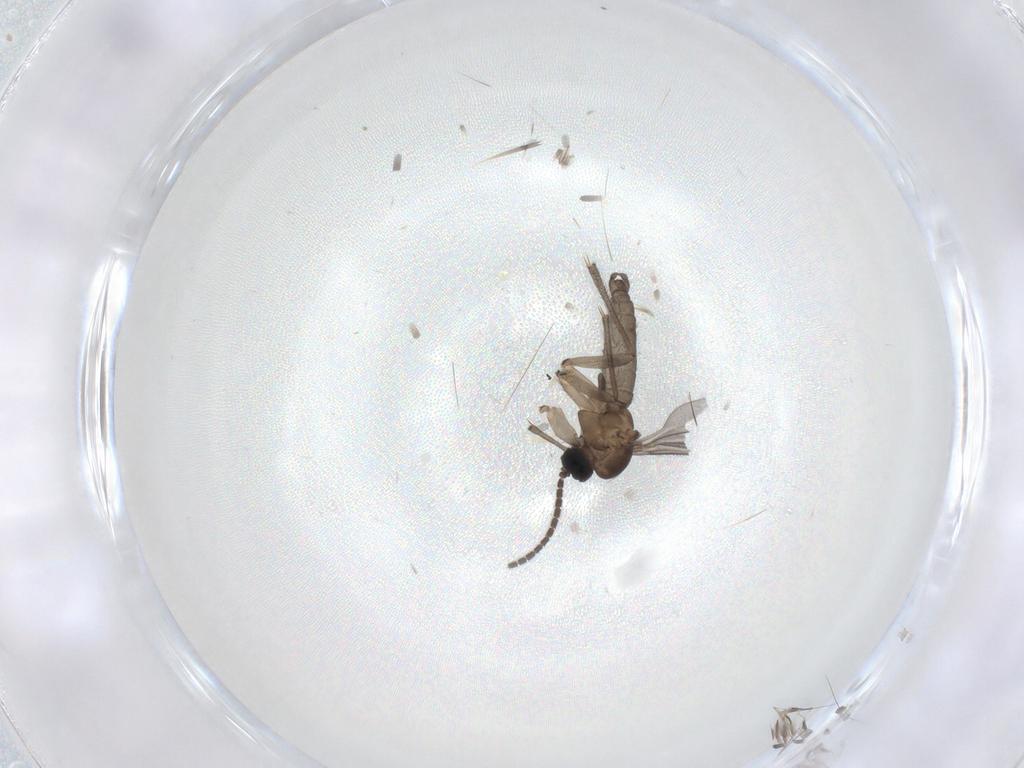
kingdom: Animalia
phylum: Arthropoda
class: Insecta
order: Diptera
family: Sciaridae
